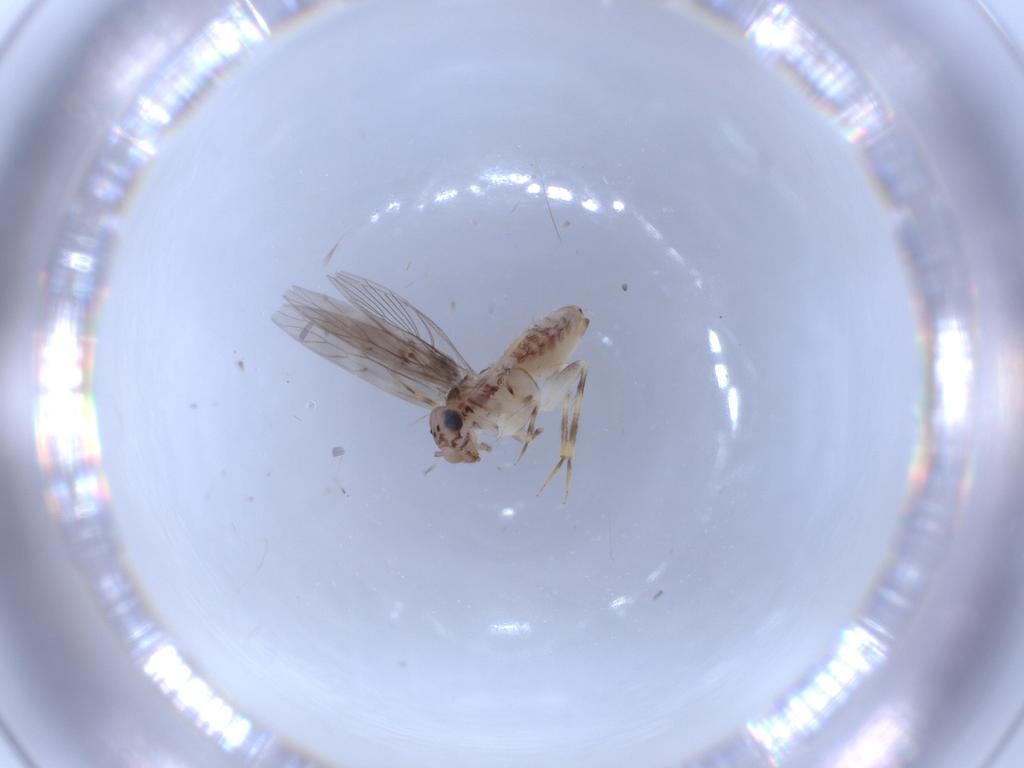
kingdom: Animalia
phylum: Arthropoda
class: Insecta
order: Psocodea
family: Lepidopsocidae
